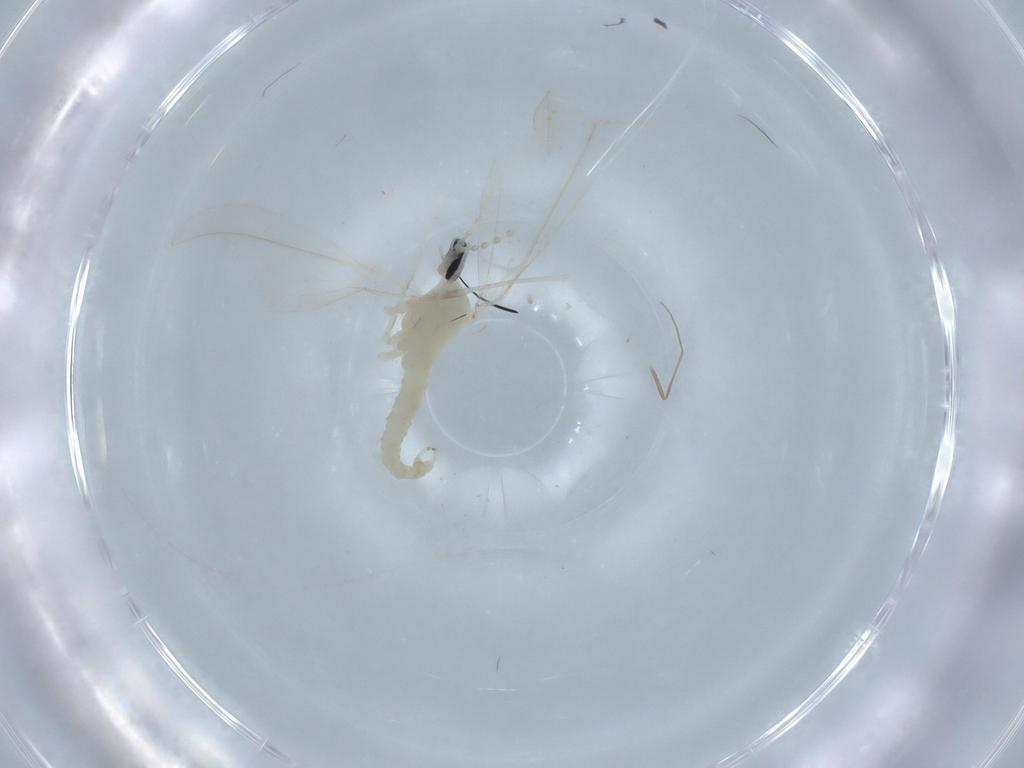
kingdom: Animalia
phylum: Arthropoda
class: Insecta
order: Diptera
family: Cecidomyiidae
